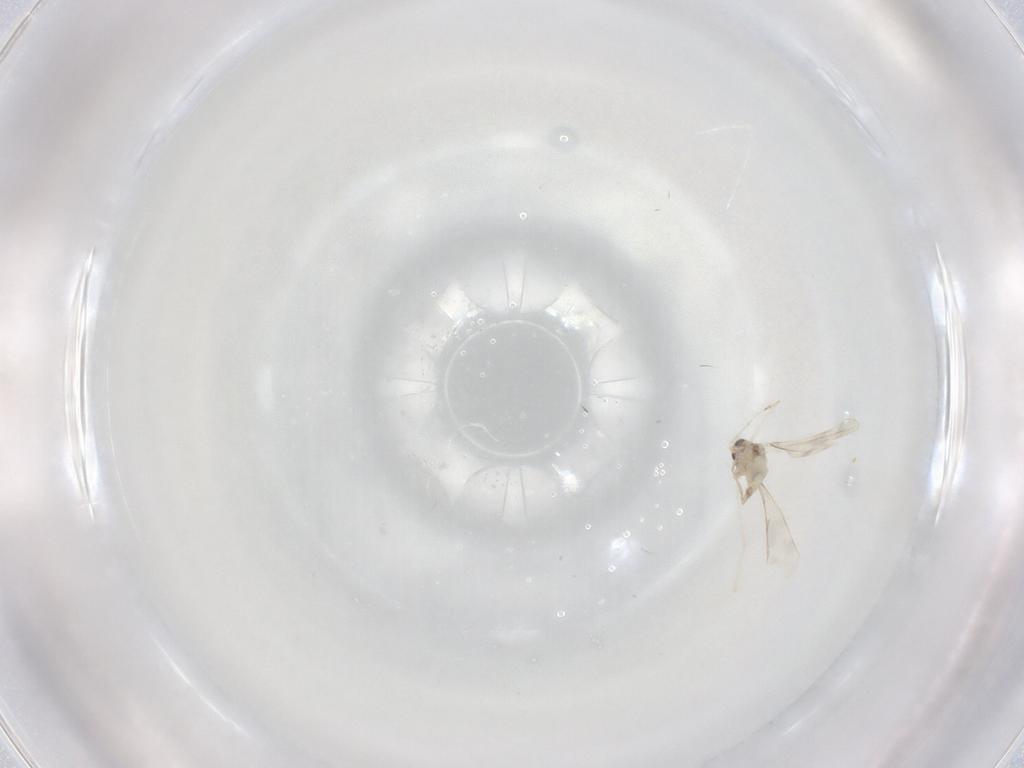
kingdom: Animalia
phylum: Arthropoda
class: Insecta
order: Diptera
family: Cecidomyiidae
